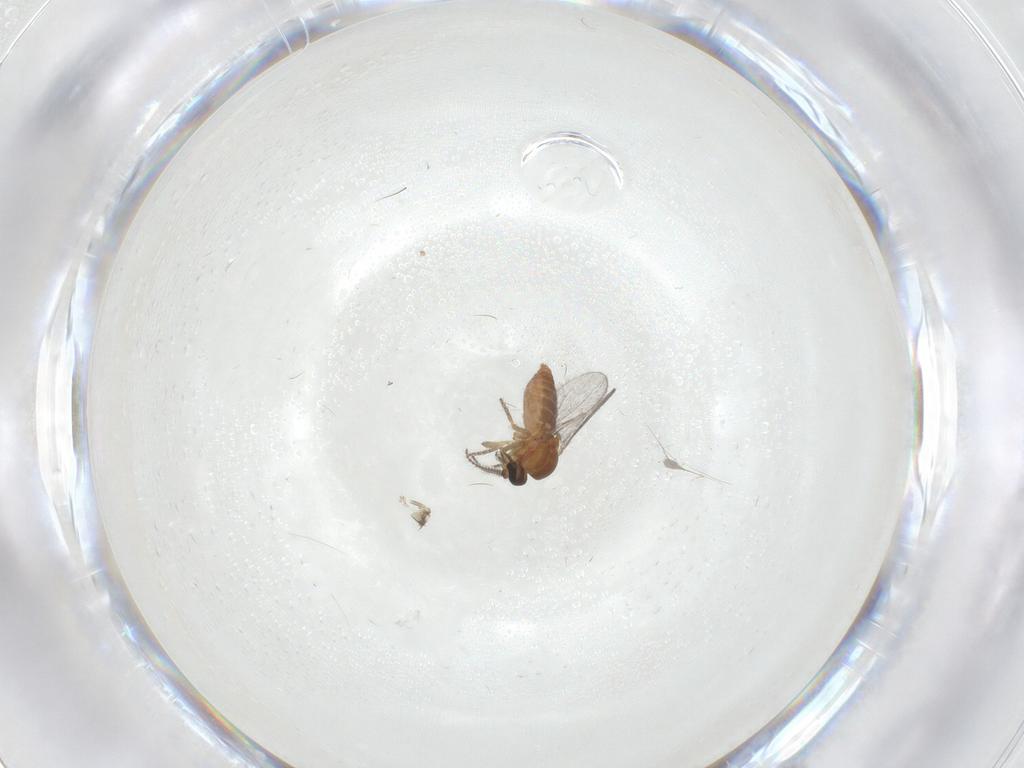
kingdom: Animalia
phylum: Arthropoda
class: Insecta
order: Diptera
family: Ceratopogonidae
